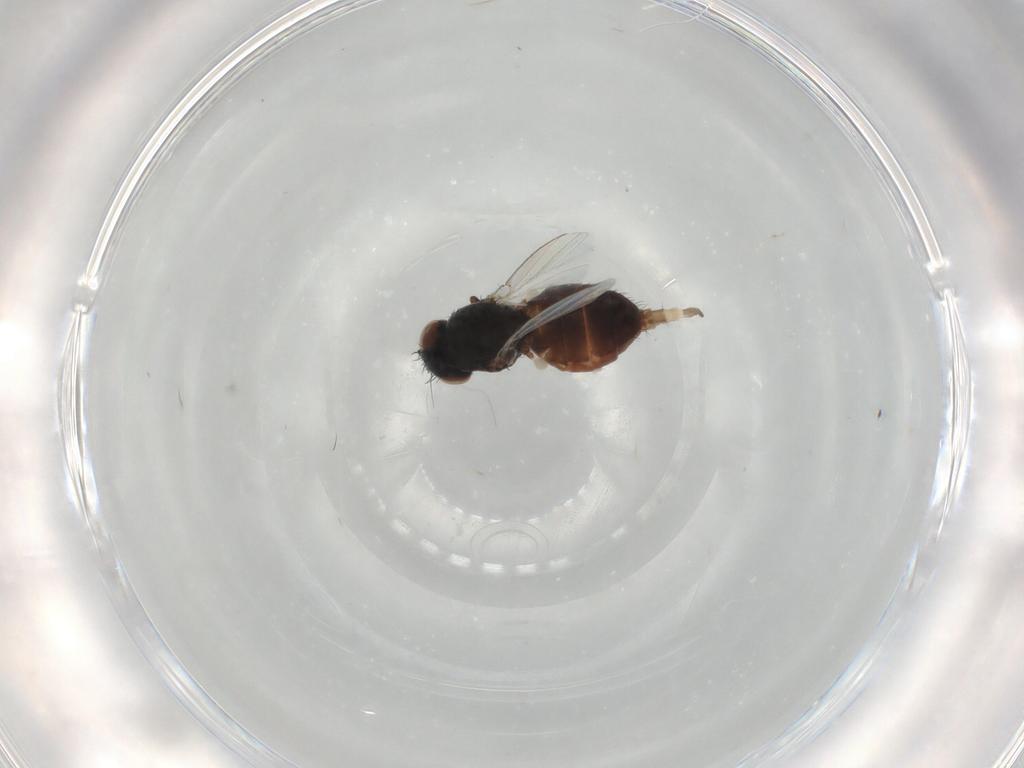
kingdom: Animalia
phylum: Arthropoda
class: Insecta
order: Diptera
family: Milichiidae
